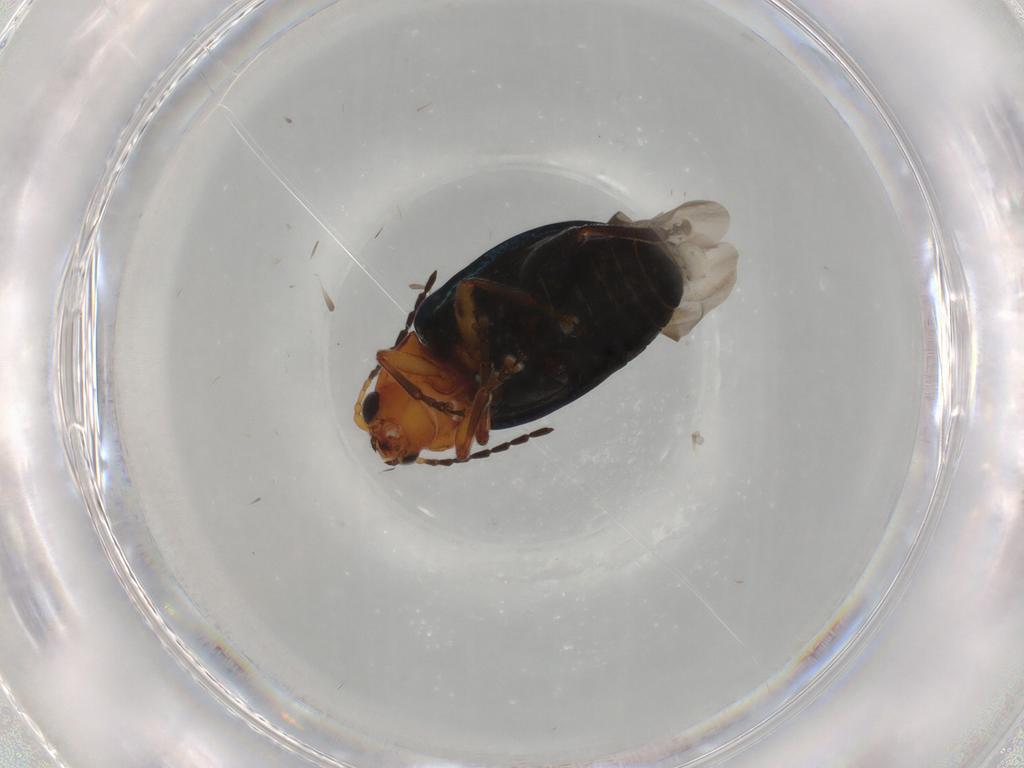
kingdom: Animalia
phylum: Arthropoda
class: Insecta
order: Coleoptera
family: Chrysomelidae
